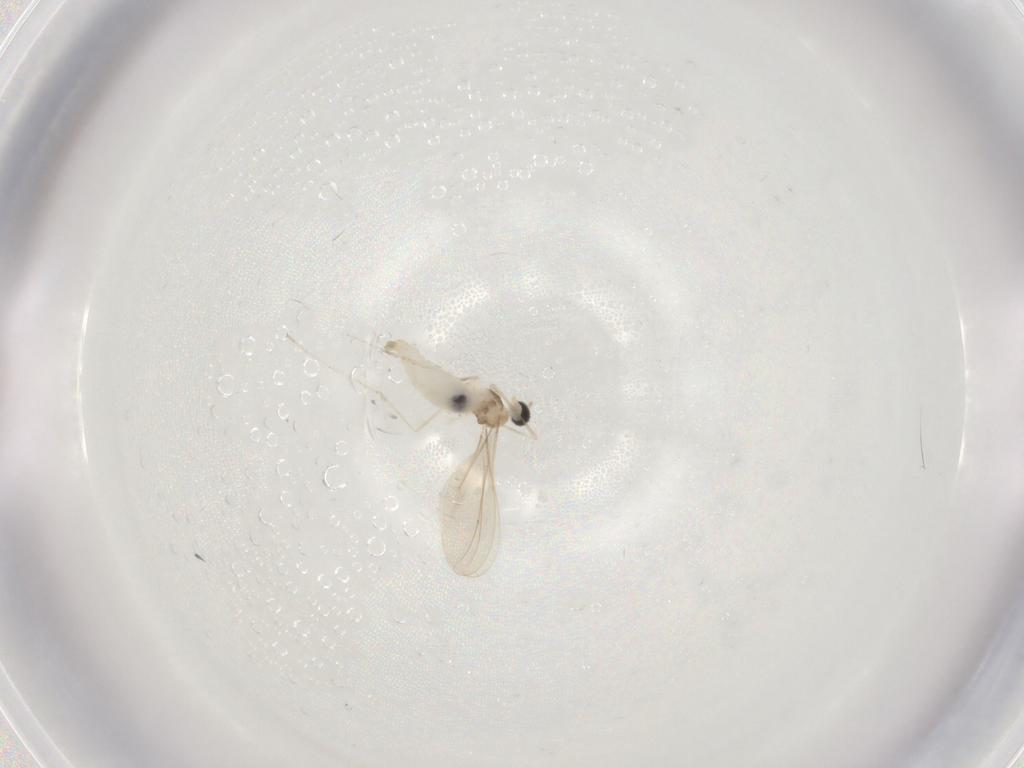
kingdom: Animalia
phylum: Arthropoda
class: Insecta
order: Diptera
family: Cecidomyiidae
